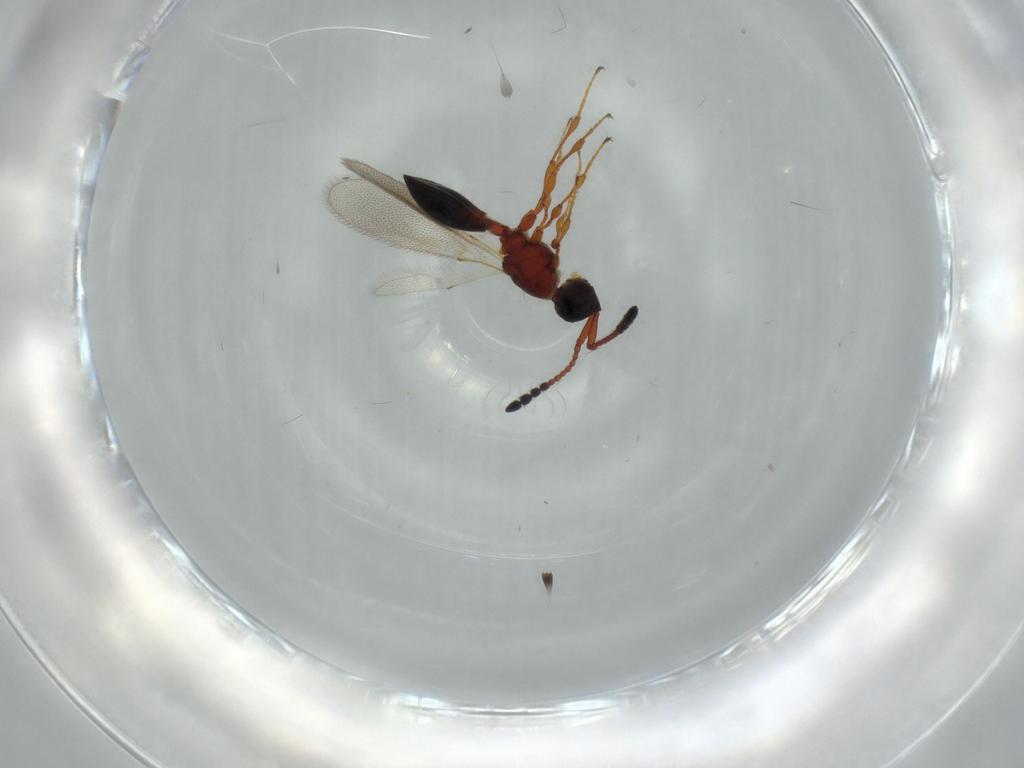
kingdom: Animalia
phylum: Arthropoda
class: Insecta
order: Hymenoptera
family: Diapriidae
